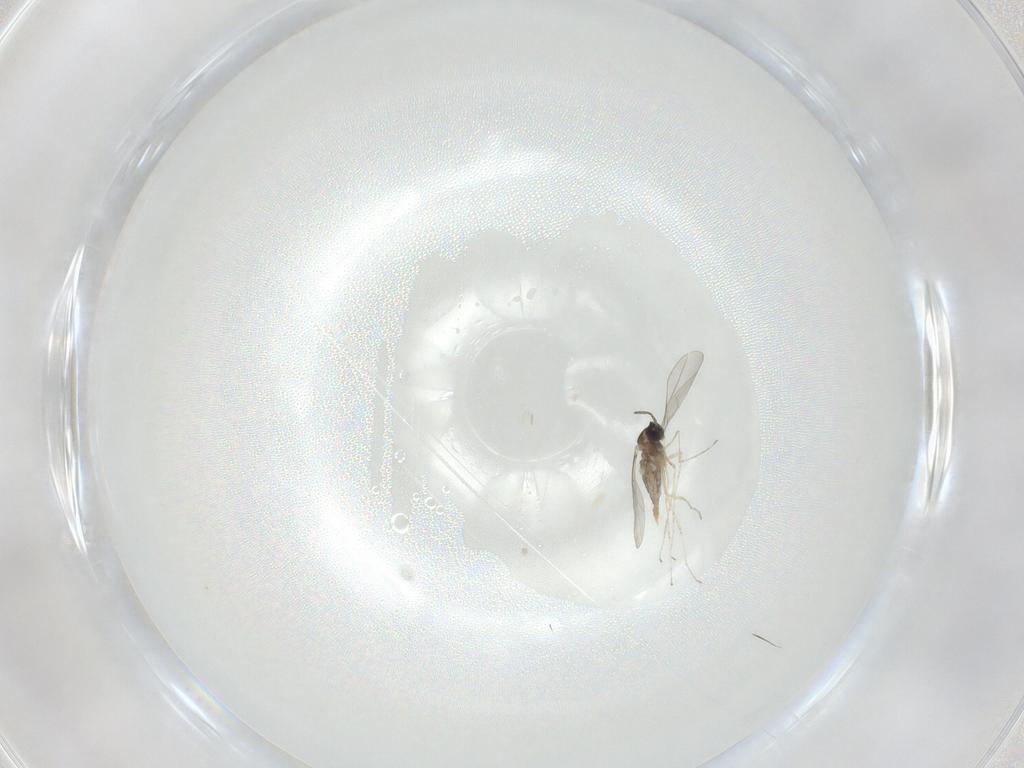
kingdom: Animalia
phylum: Arthropoda
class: Insecta
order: Diptera
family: Cecidomyiidae
